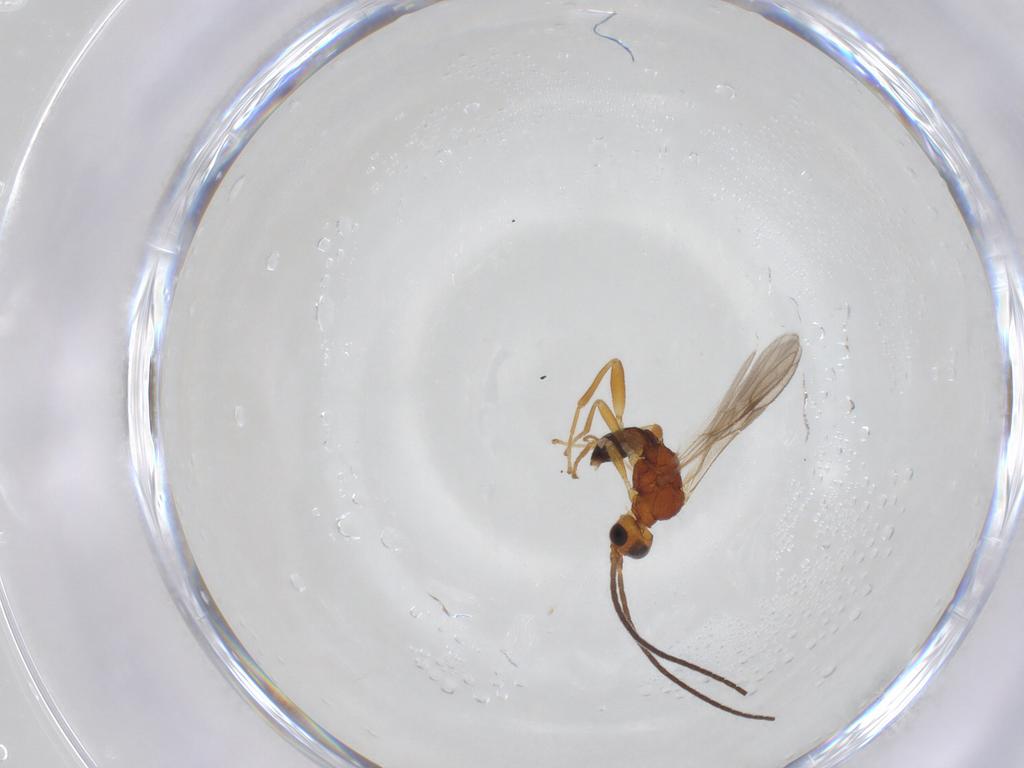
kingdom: Animalia
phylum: Arthropoda
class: Insecta
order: Hymenoptera
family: Braconidae
